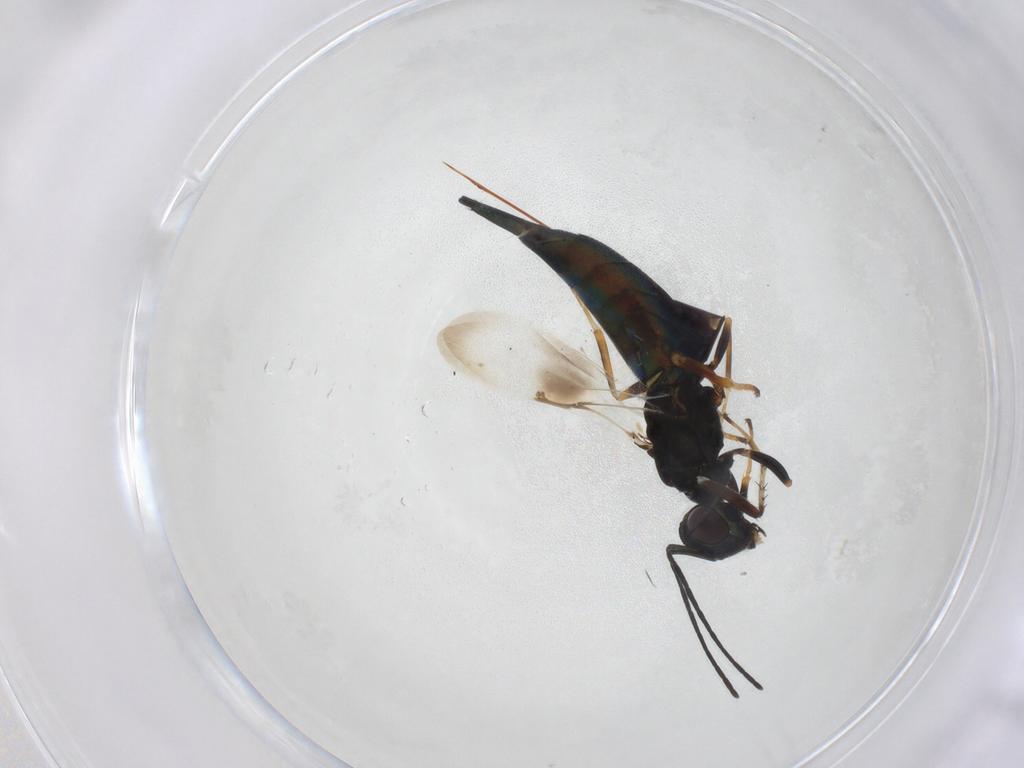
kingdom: Animalia
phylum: Arthropoda
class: Insecta
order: Hymenoptera
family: Eulophidae
